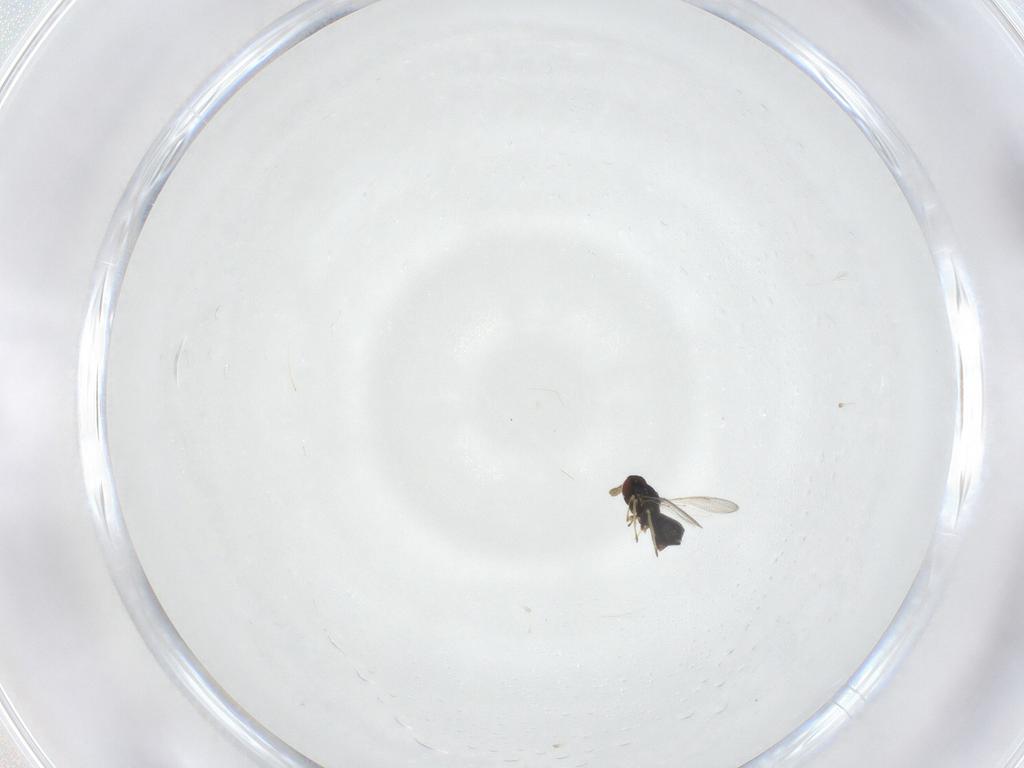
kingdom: Animalia
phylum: Arthropoda
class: Insecta
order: Hymenoptera
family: Eulophidae
